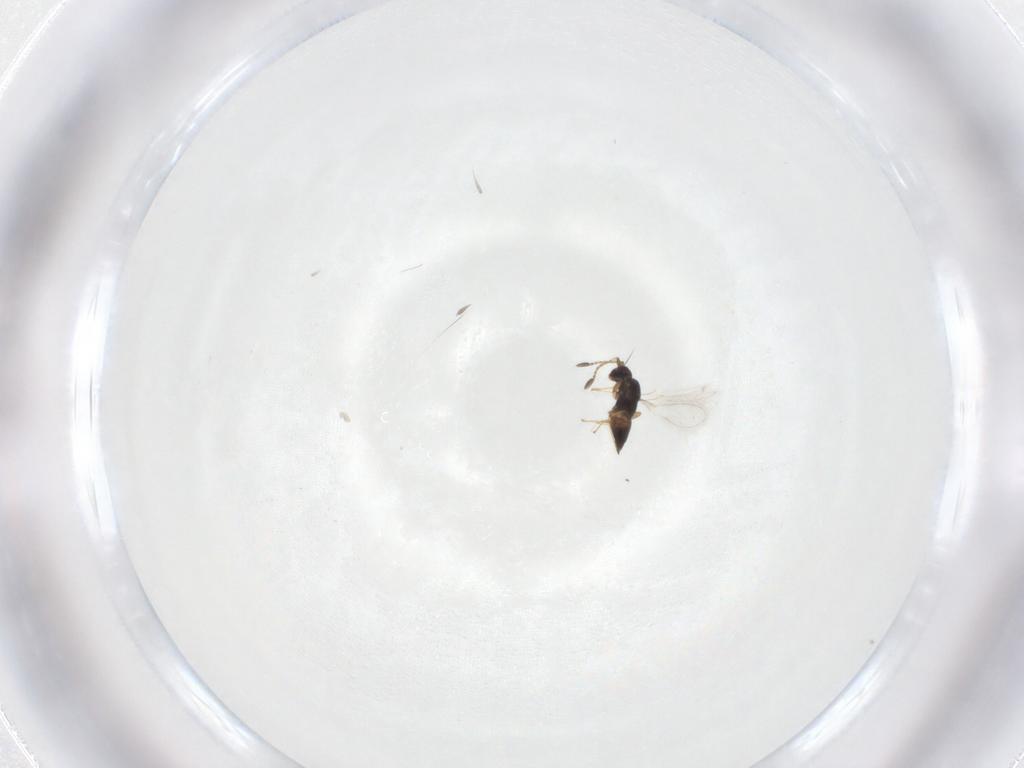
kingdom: Animalia
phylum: Arthropoda
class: Insecta
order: Hymenoptera
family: Mymaridae
